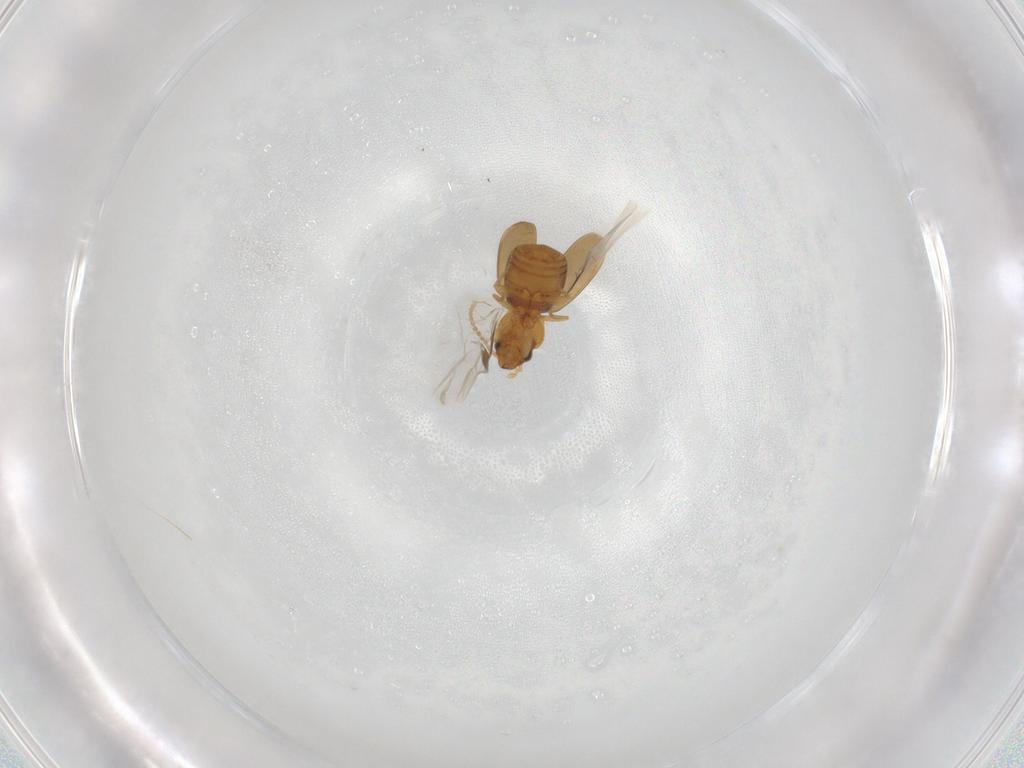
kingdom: Animalia
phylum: Arthropoda
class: Insecta
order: Coleoptera
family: Carabidae
